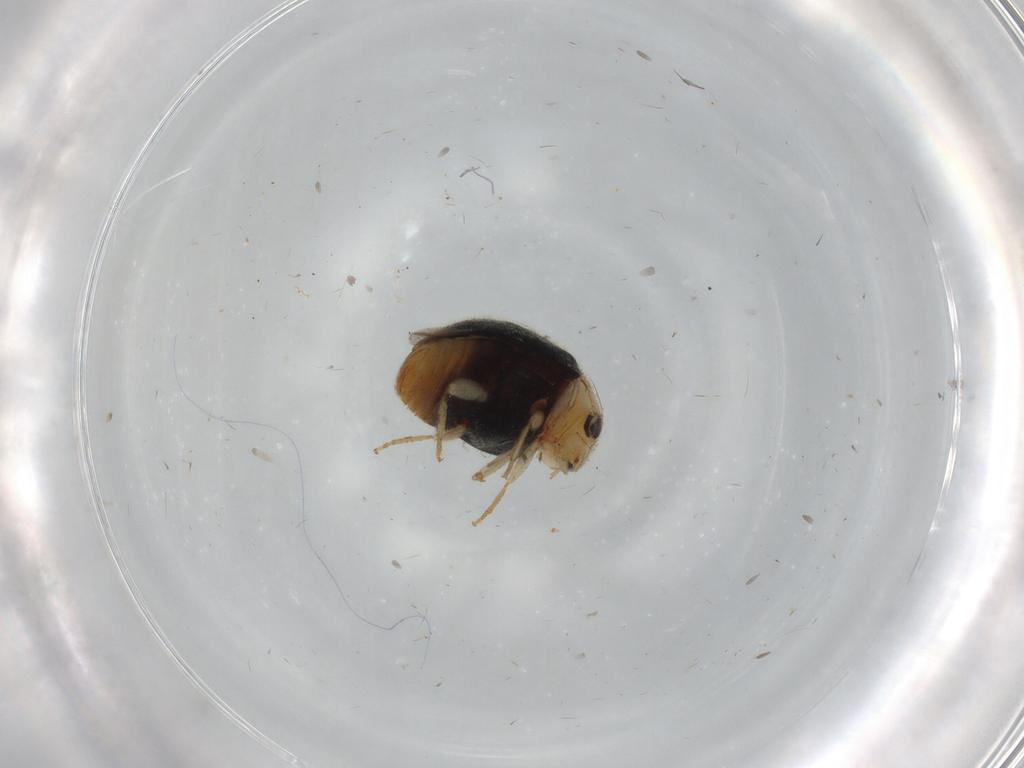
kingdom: Animalia
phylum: Arthropoda
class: Insecta
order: Coleoptera
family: Coccinellidae
